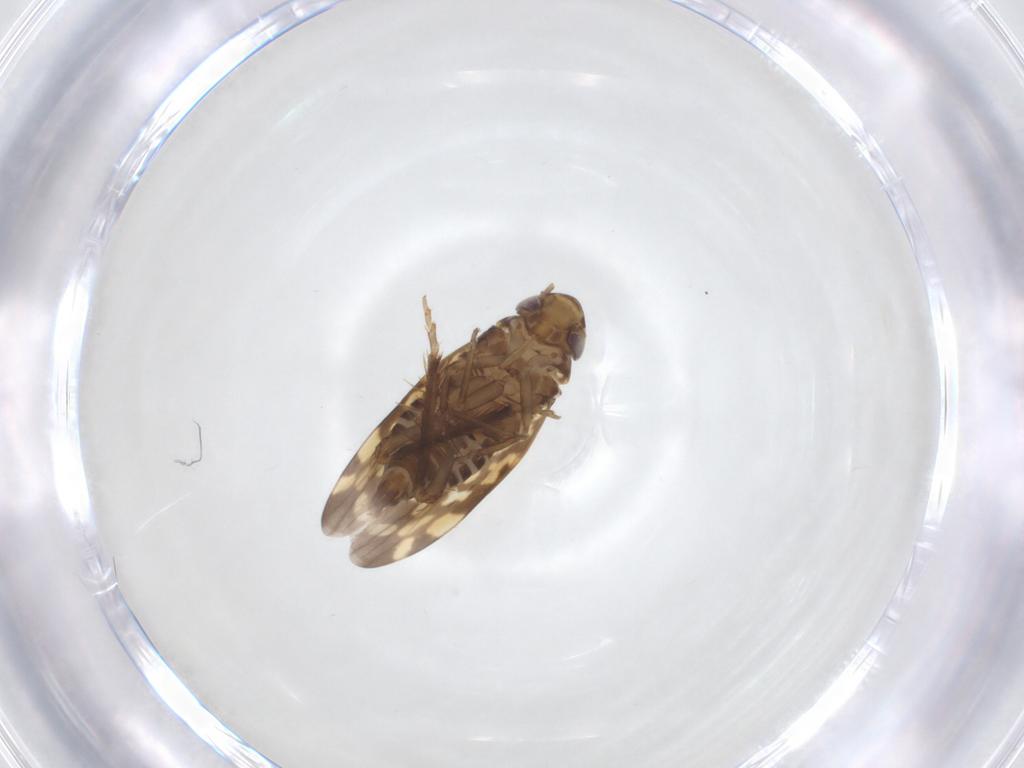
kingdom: Animalia
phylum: Arthropoda
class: Insecta
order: Hemiptera
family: Cicadellidae
